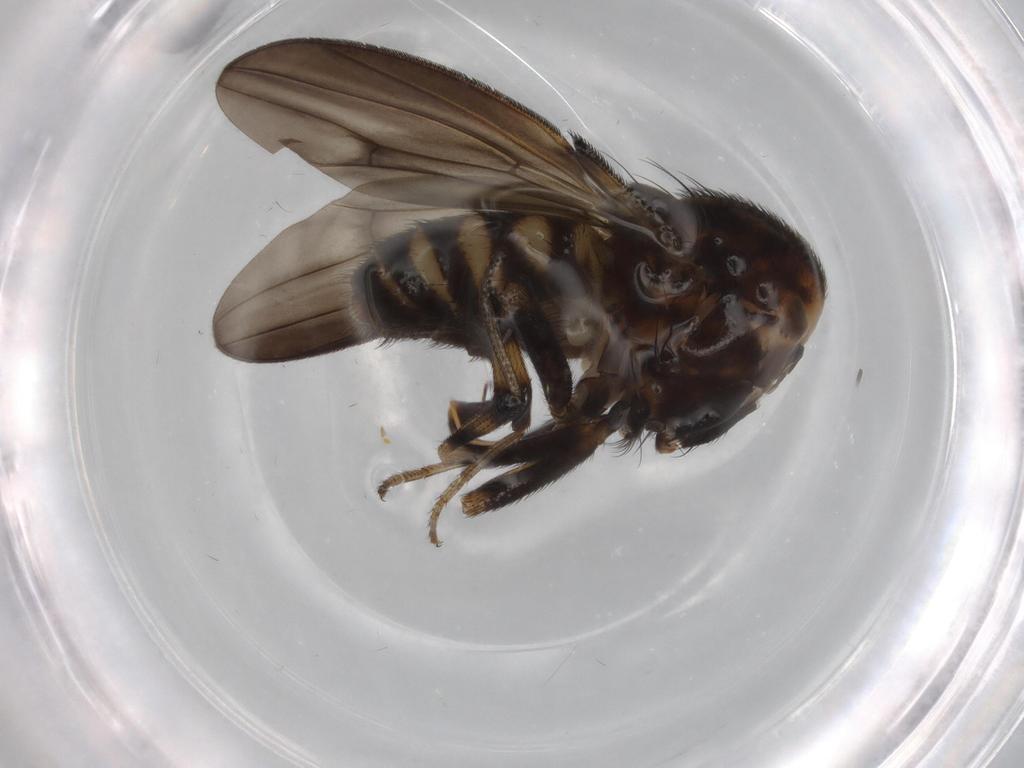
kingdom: Animalia
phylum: Arthropoda
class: Insecta
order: Diptera
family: Drosophilidae
